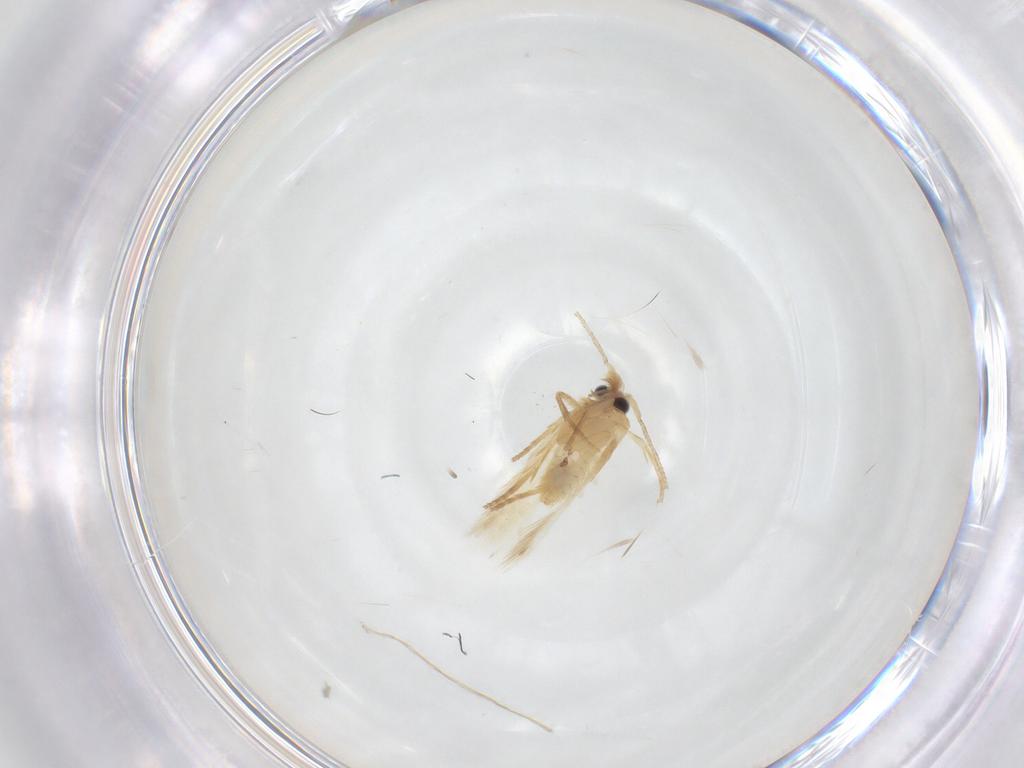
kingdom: Animalia
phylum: Arthropoda
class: Insecta
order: Lepidoptera
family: Nepticulidae
